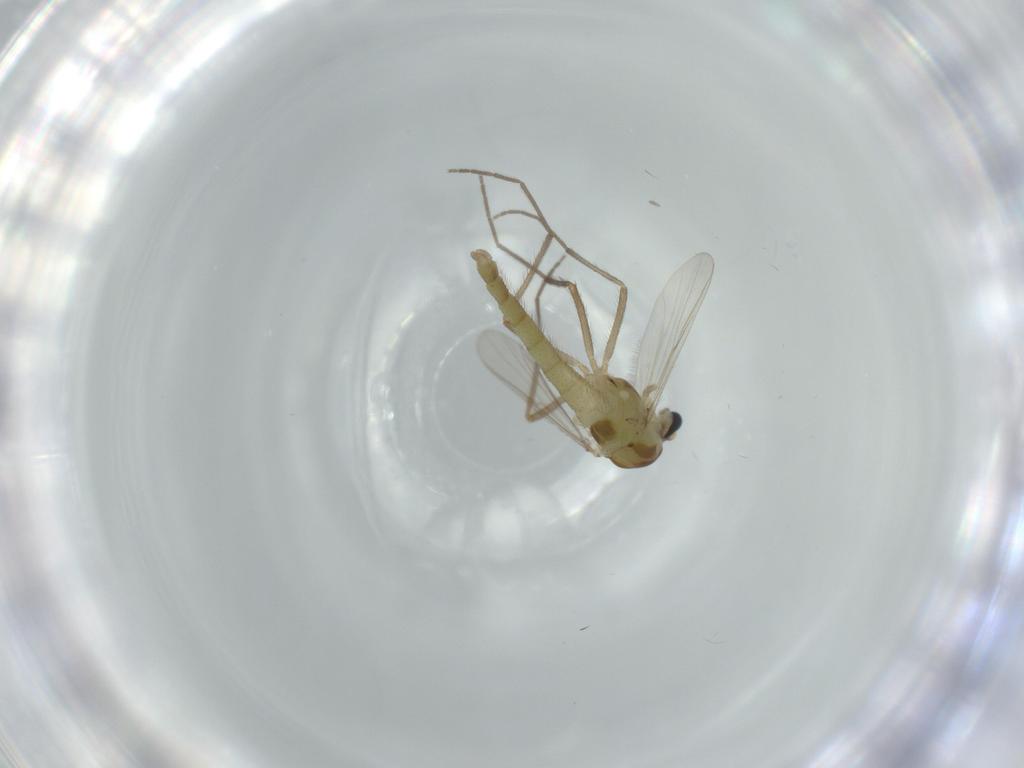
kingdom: Animalia
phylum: Arthropoda
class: Insecta
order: Diptera
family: Chironomidae
